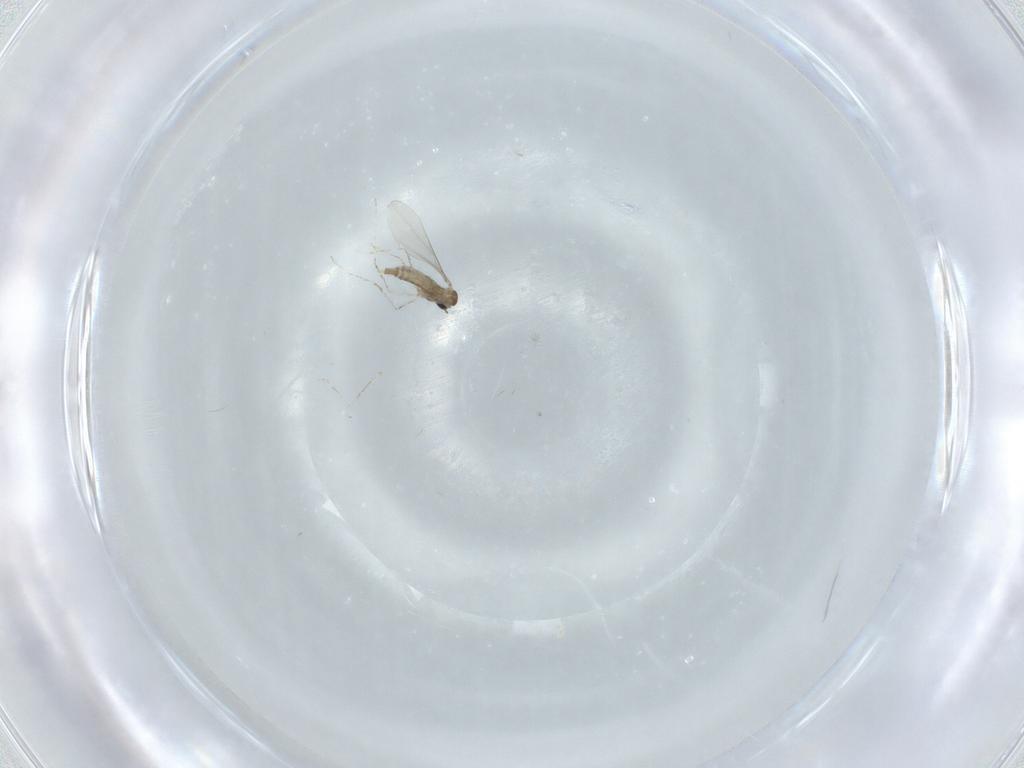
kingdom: Animalia
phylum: Arthropoda
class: Insecta
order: Diptera
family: Cecidomyiidae
